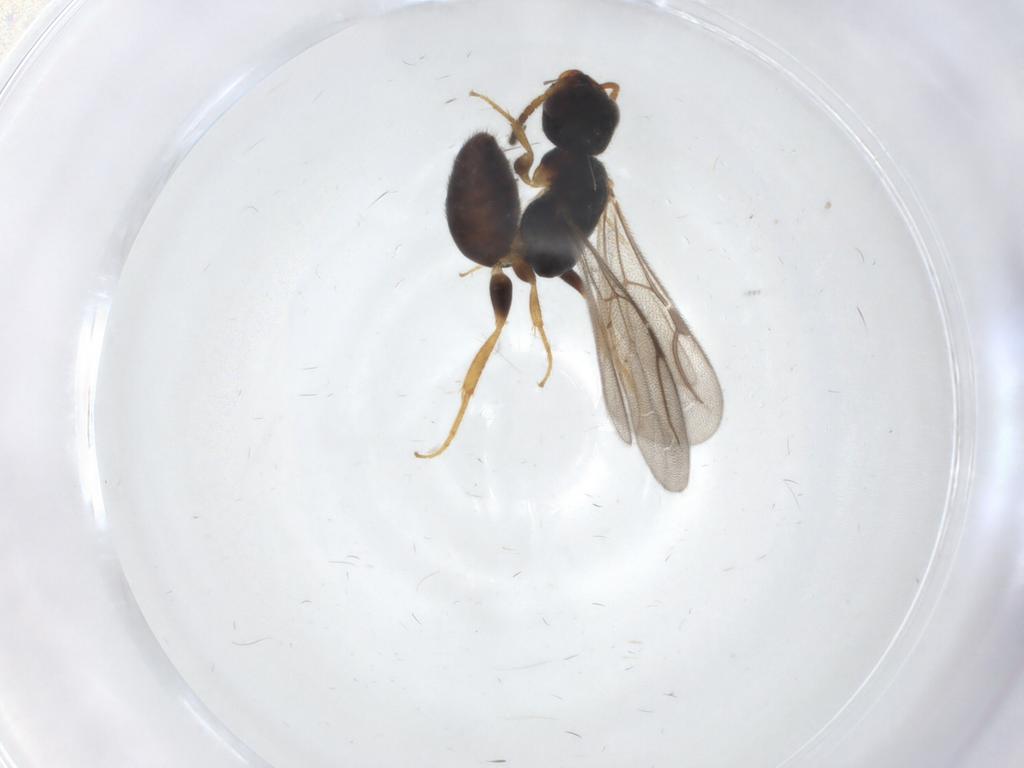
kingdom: Animalia
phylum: Arthropoda
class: Insecta
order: Hymenoptera
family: Bethylidae
